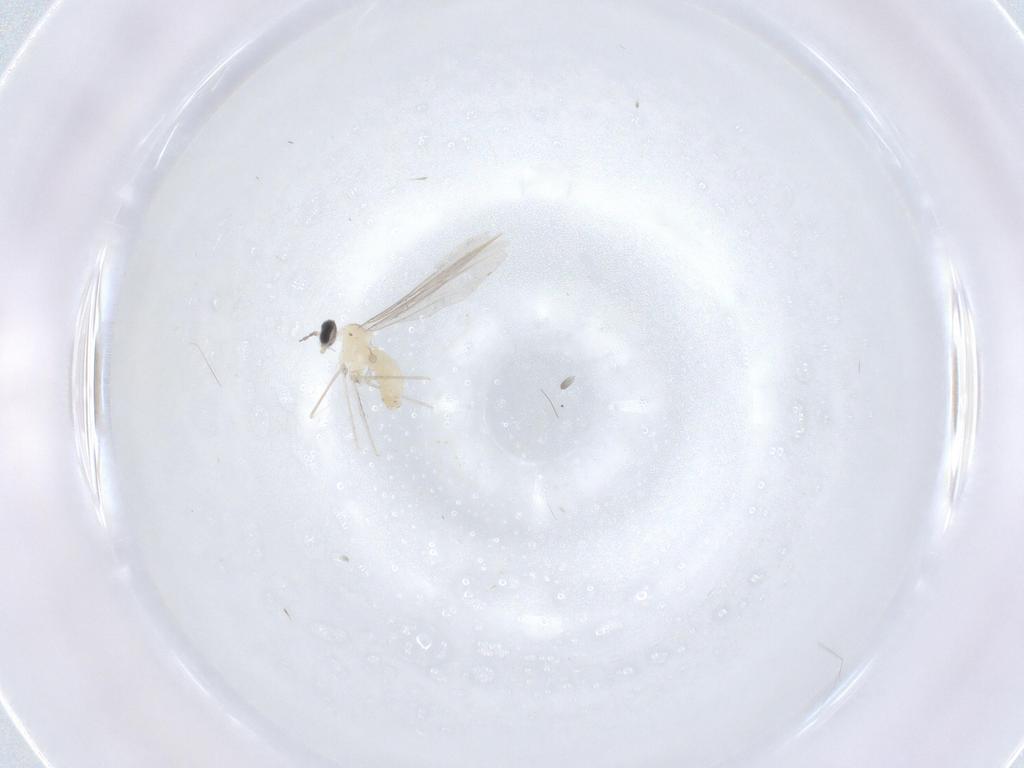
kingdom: Animalia
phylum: Arthropoda
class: Insecta
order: Diptera
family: Cecidomyiidae
